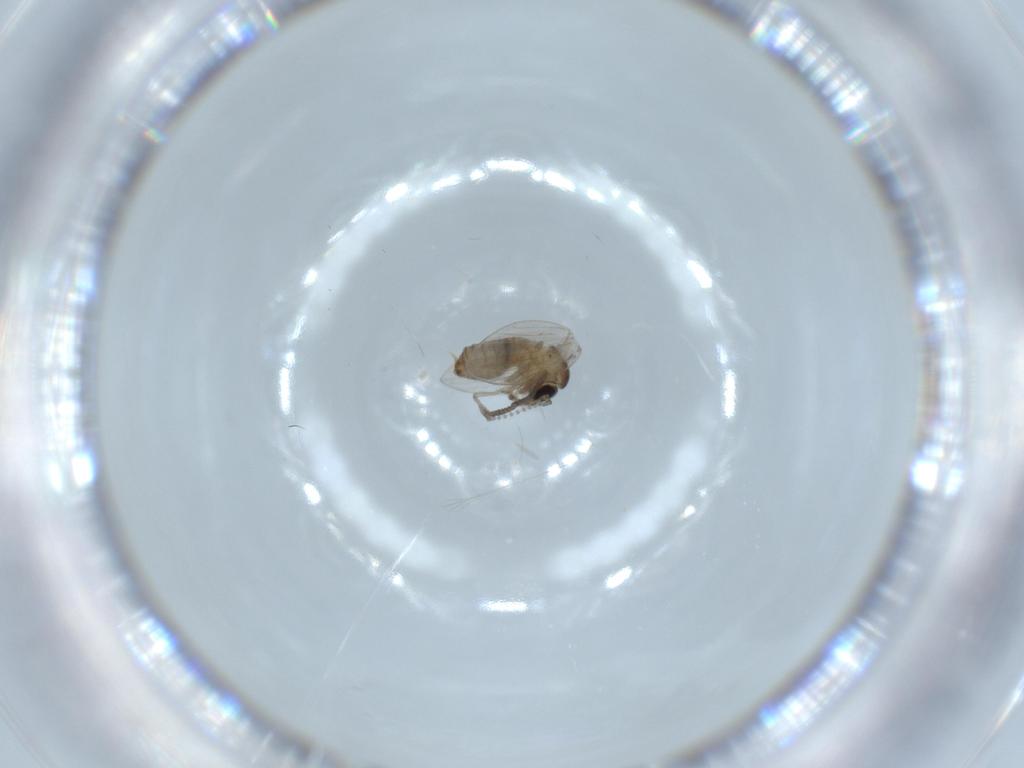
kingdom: Animalia
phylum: Arthropoda
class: Insecta
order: Diptera
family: Psychodidae
